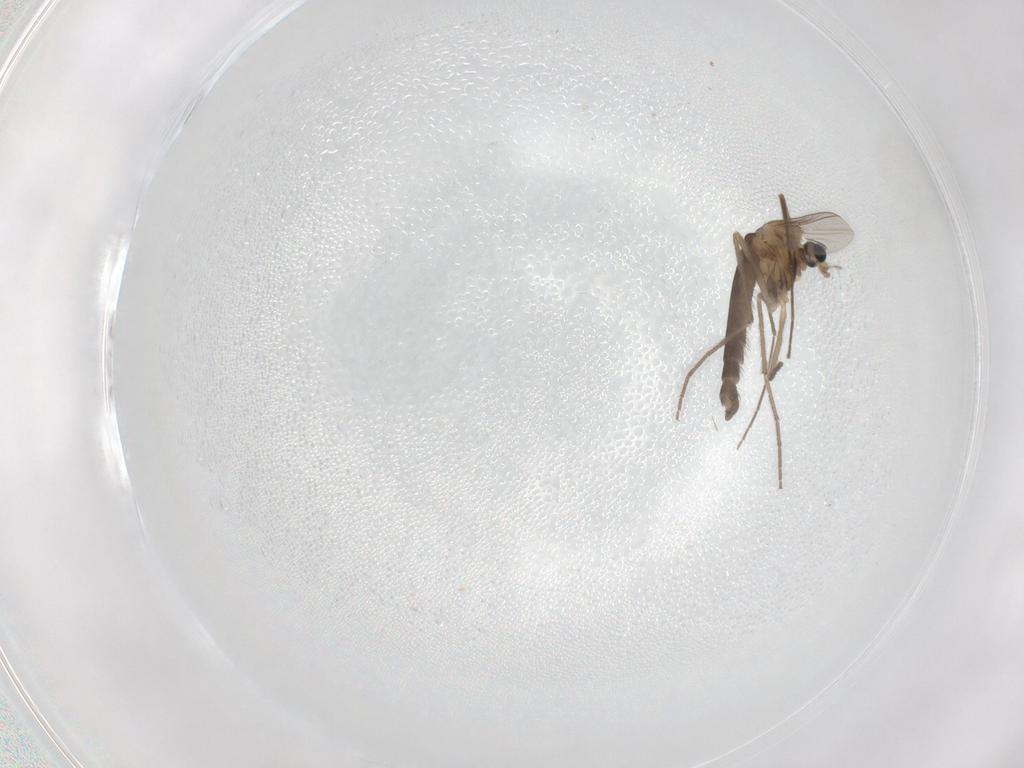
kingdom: Animalia
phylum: Arthropoda
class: Insecta
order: Diptera
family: Chironomidae
